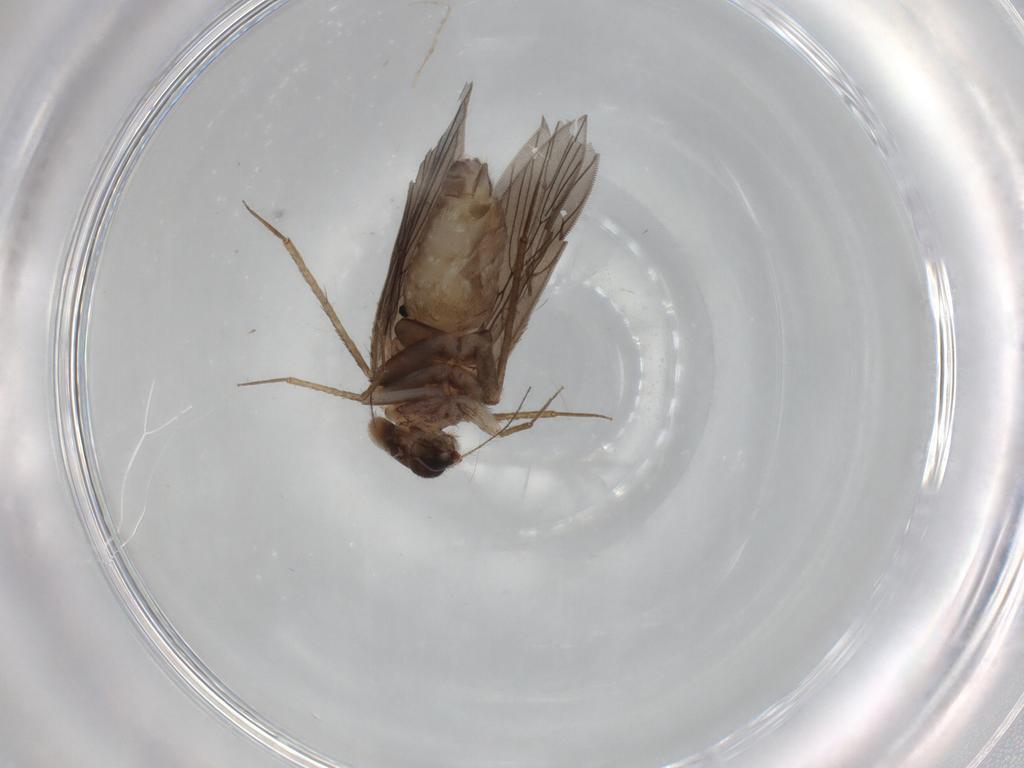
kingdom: Animalia
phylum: Arthropoda
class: Insecta
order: Psocodea
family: Lepidopsocidae
